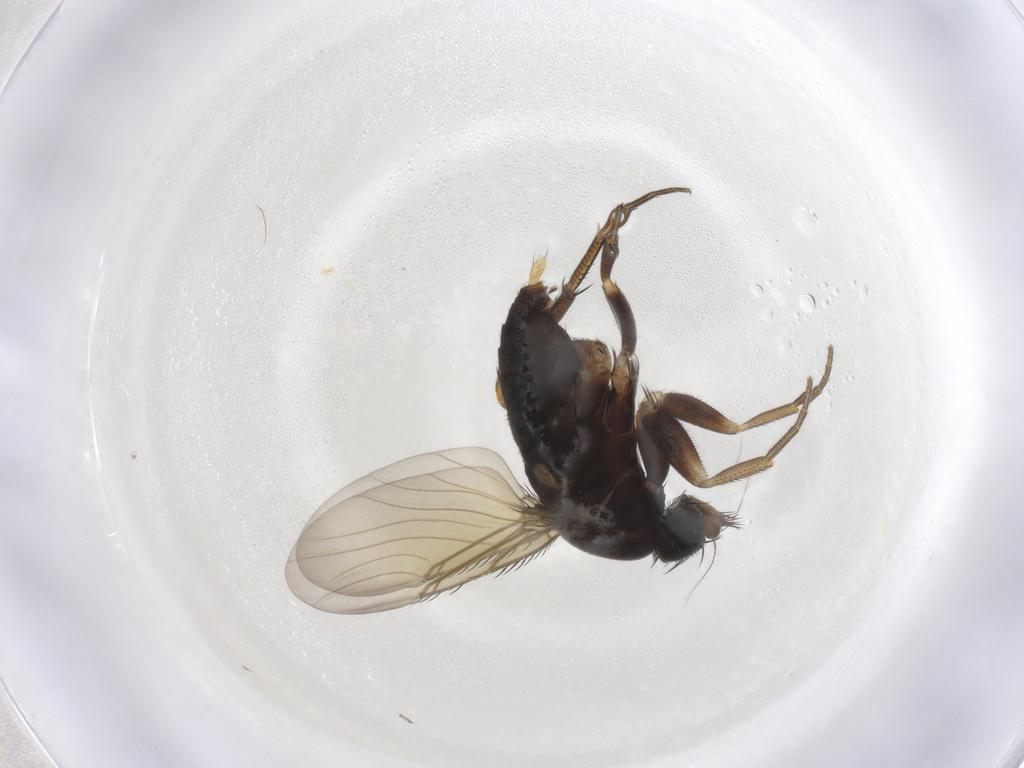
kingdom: Animalia
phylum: Arthropoda
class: Insecta
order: Diptera
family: Phoridae
